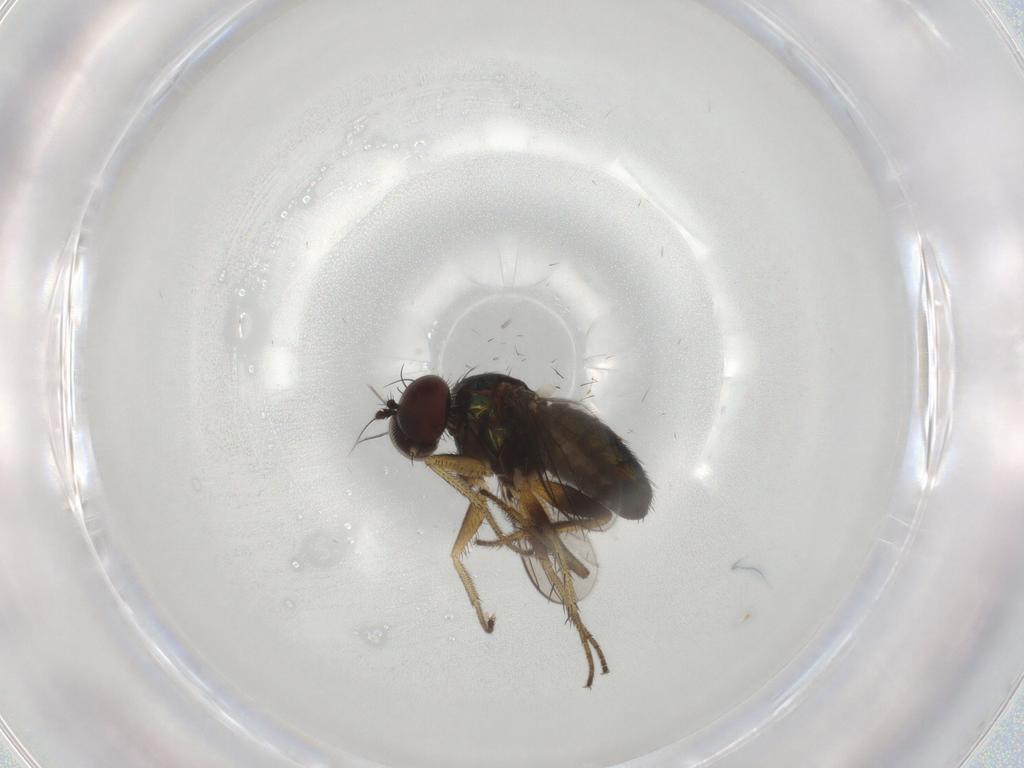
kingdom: Animalia
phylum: Arthropoda
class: Insecta
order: Diptera
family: Dolichopodidae
